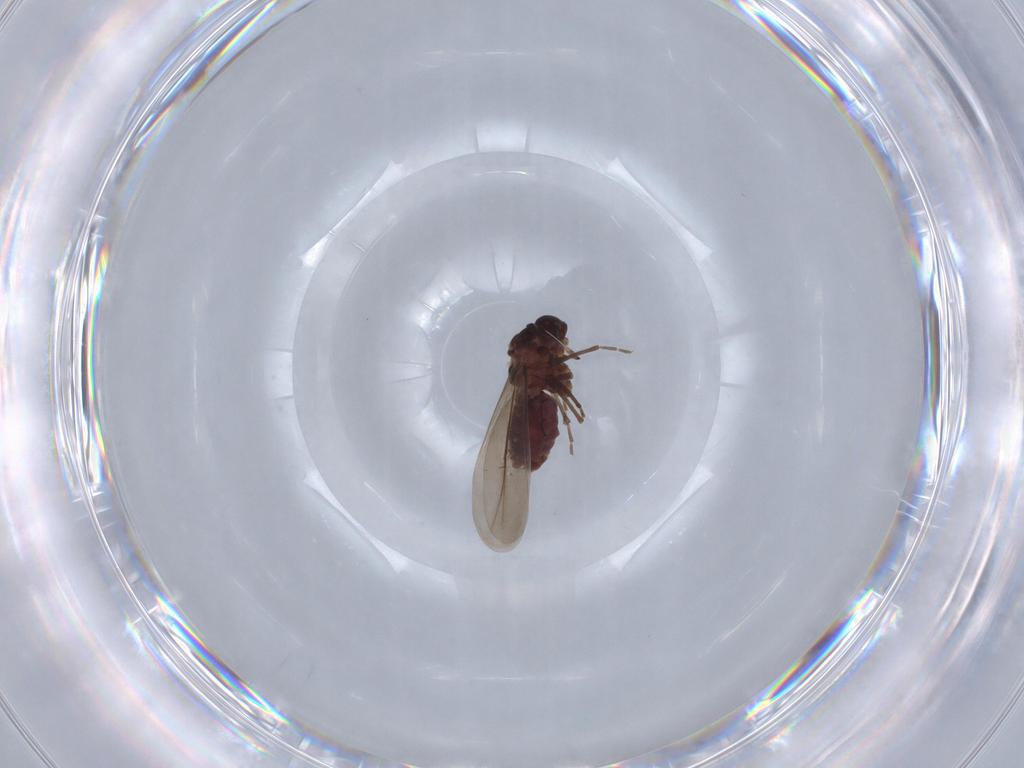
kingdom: Animalia
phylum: Arthropoda
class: Insecta
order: Hemiptera
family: Aleyrodidae
